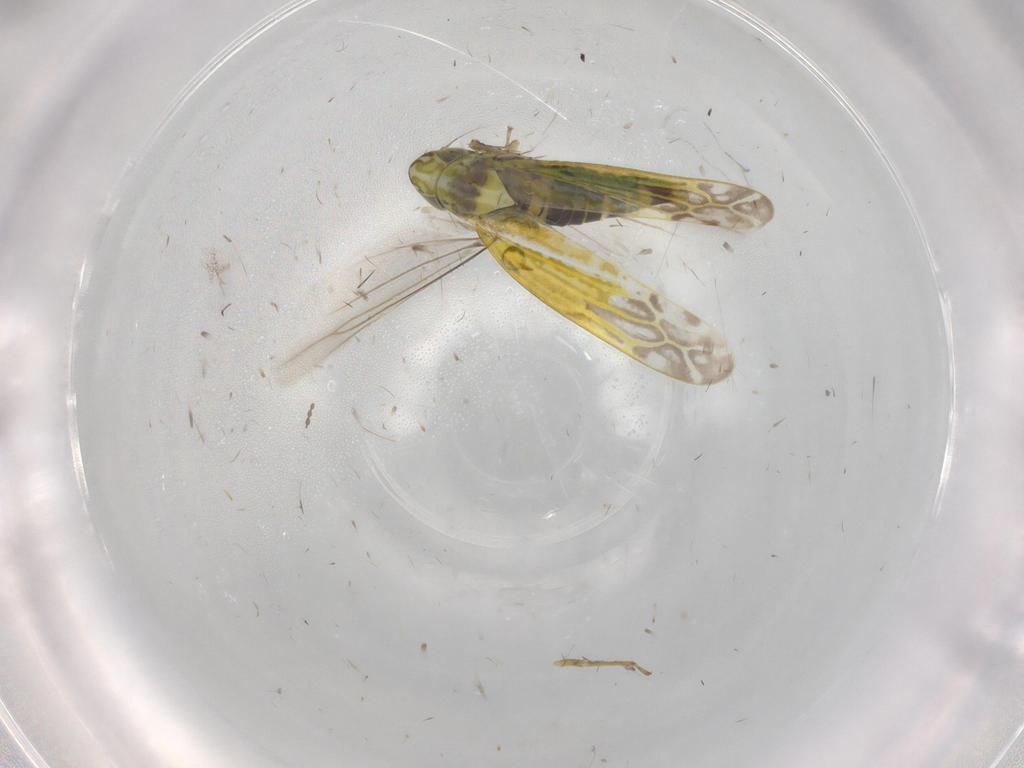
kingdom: Animalia
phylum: Arthropoda
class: Insecta
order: Hemiptera
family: Cicadellidae
